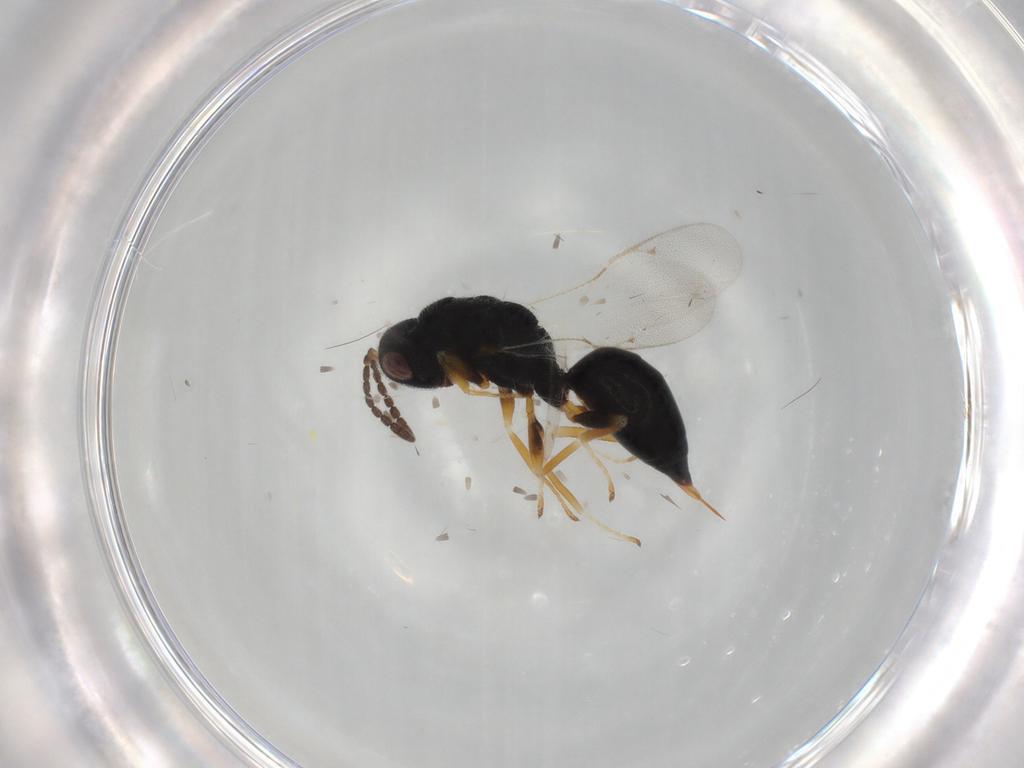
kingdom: Animalia
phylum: Arthropoda
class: Insecta
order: Hymenoptera
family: Eurytomidae
